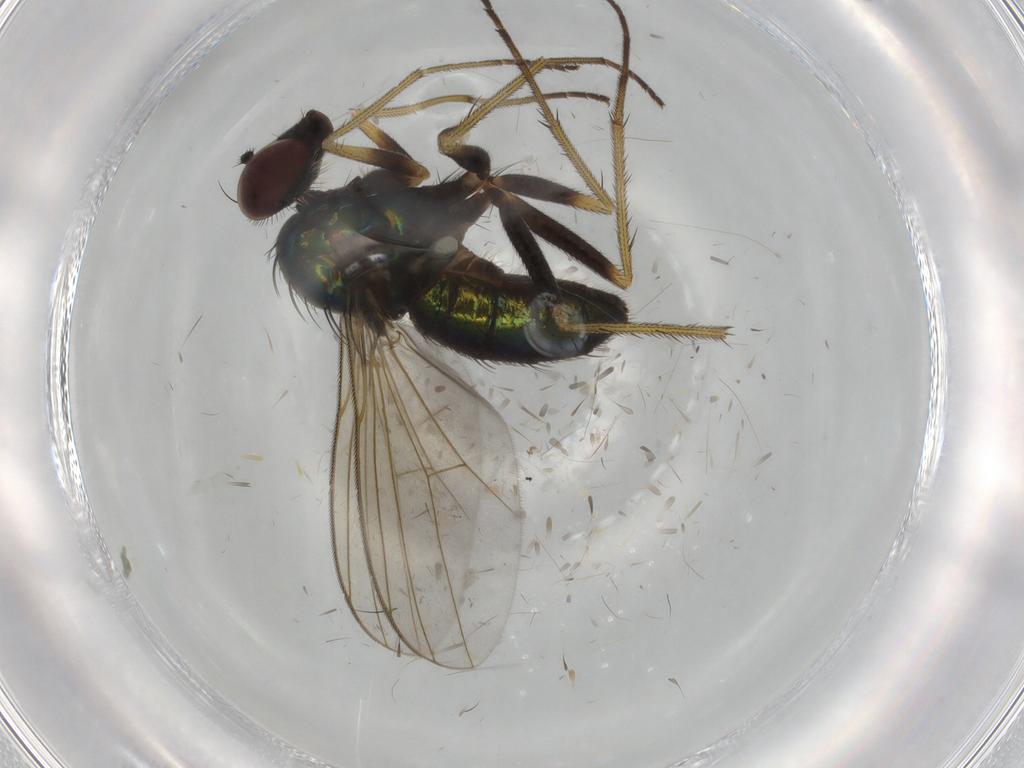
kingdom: Animalia
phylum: Arthropoda
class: Insecta
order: Diptera
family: Dolichopodidae
